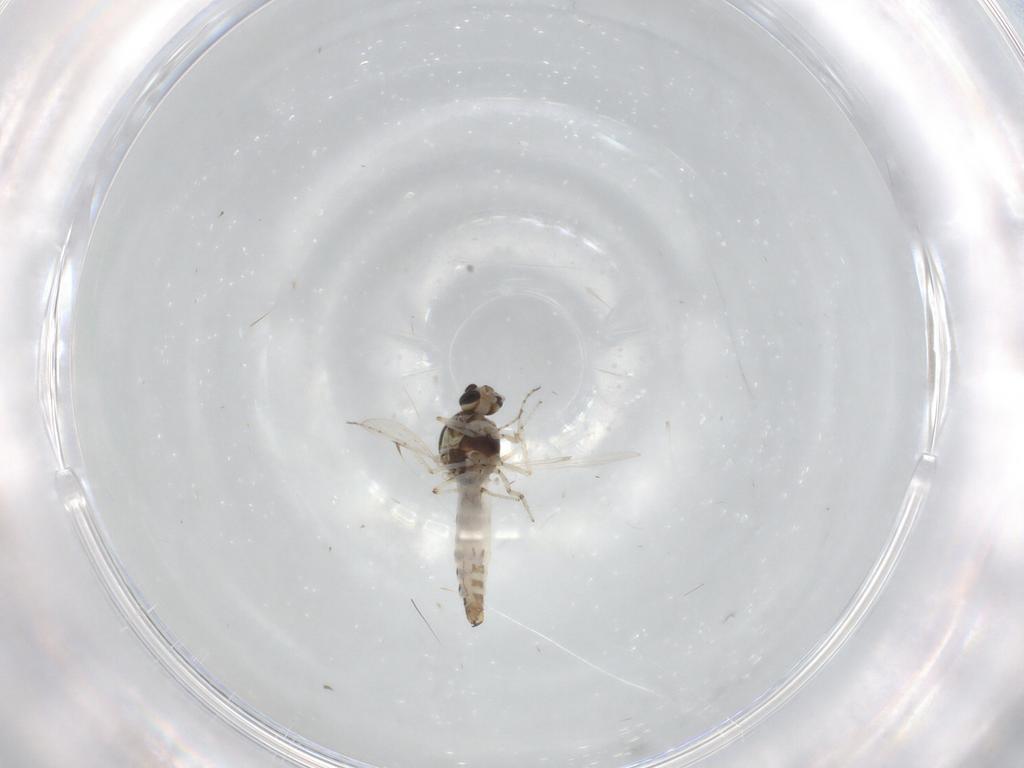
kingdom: Animalia
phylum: Arthropoda
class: Insecta
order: Diptera
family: Ceratopogonidae
